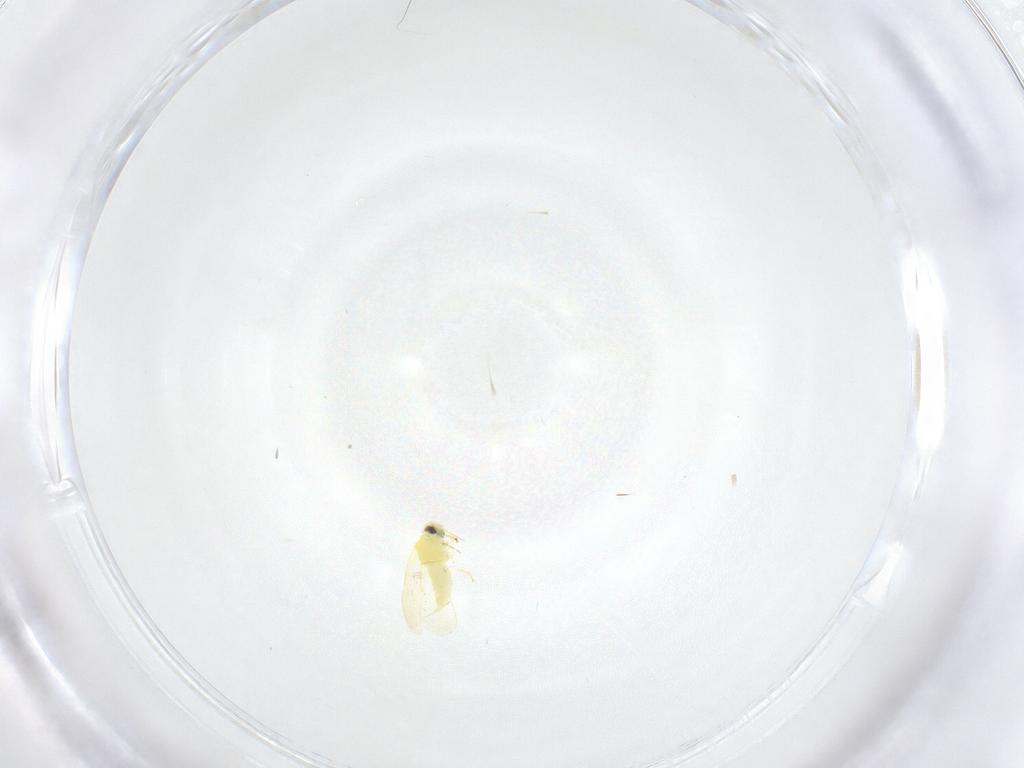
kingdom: Animalia
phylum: Arthropoda
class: Insecta
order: Hemiptera
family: Aleyrodidae
